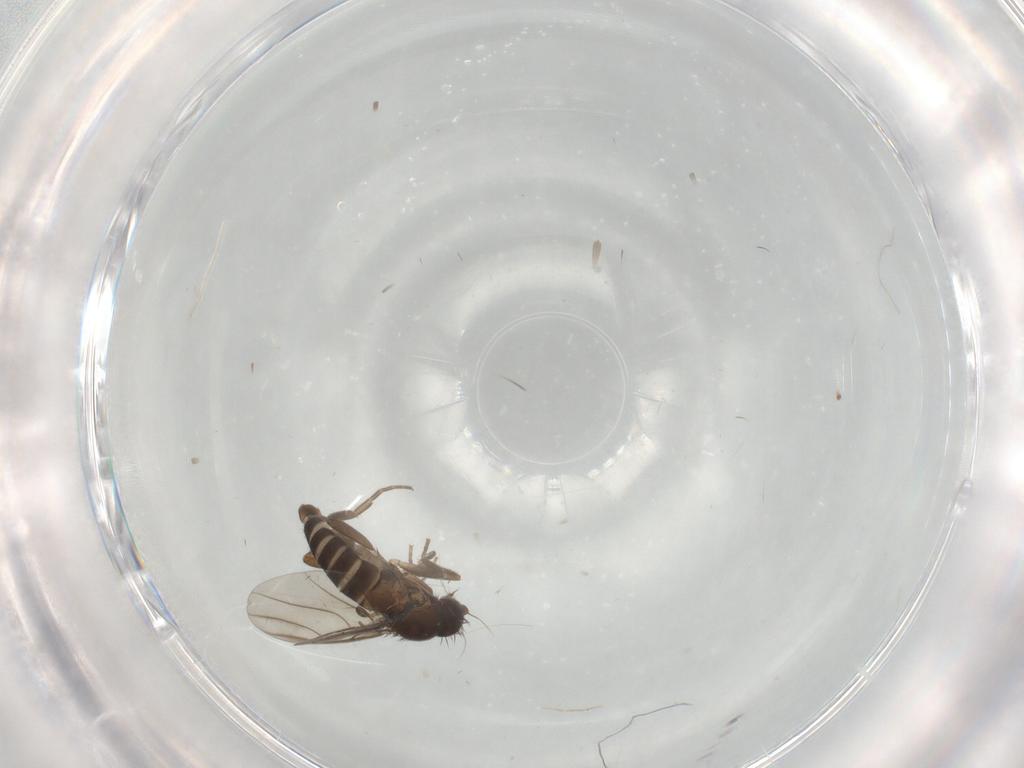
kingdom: Animalia
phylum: Arthropoda
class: Insecta
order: Diptera
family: Phoridae
